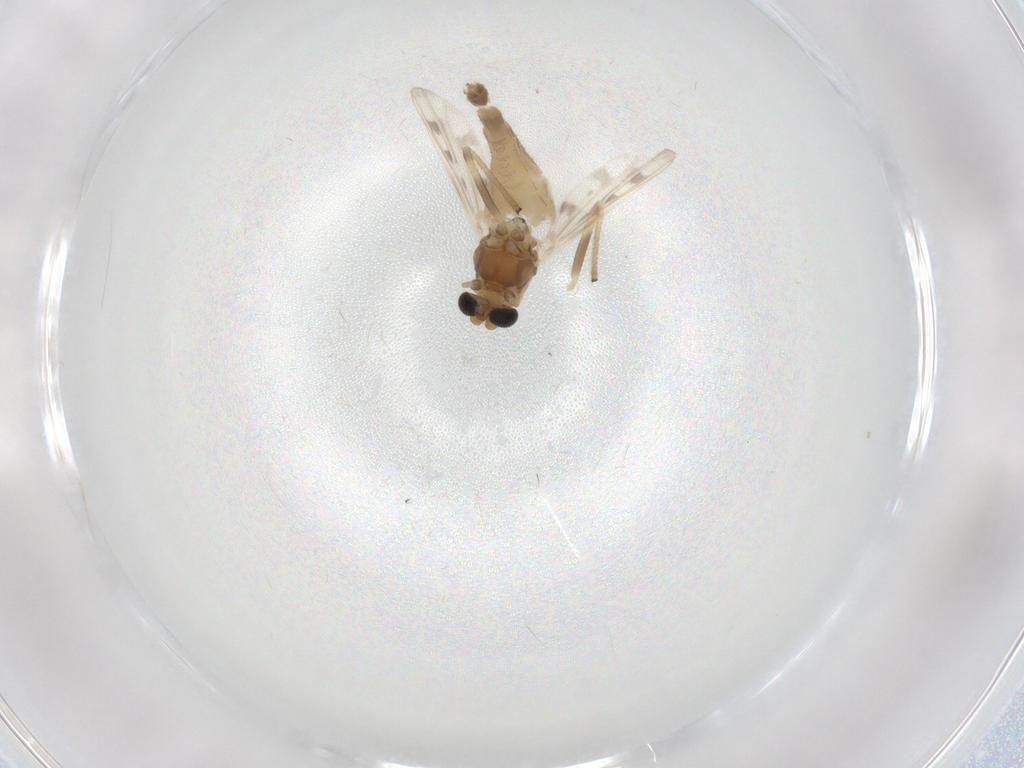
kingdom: Animalia
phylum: Arthropoda
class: Insecta
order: Diptera
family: Chironomidae
